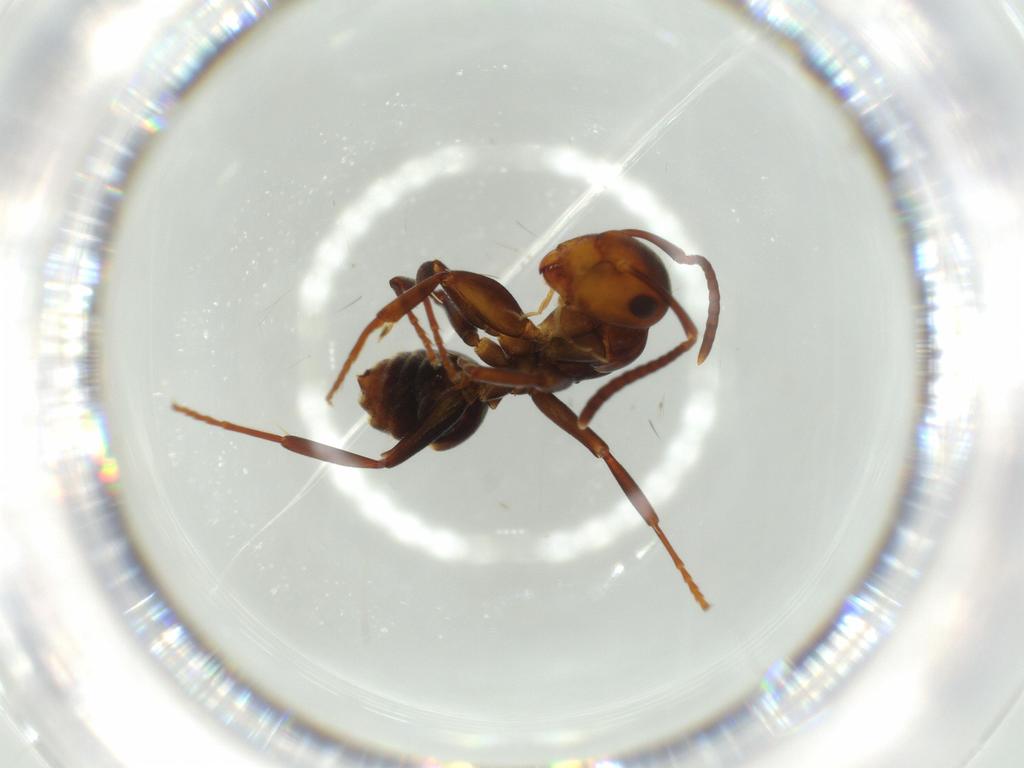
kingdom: Animalia
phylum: Arthropoda
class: Insecta
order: Hymenoptera
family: Formicidae
